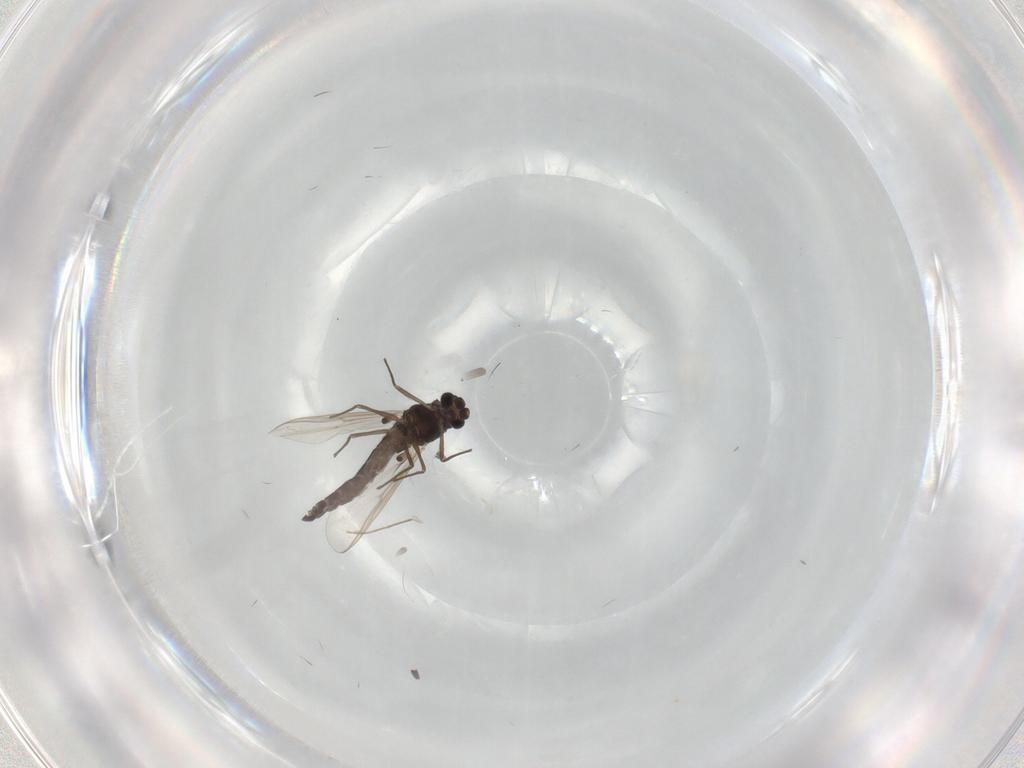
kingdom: Animalia
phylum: Arthropoda
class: Insecta
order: Diptera
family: Chironomidae
